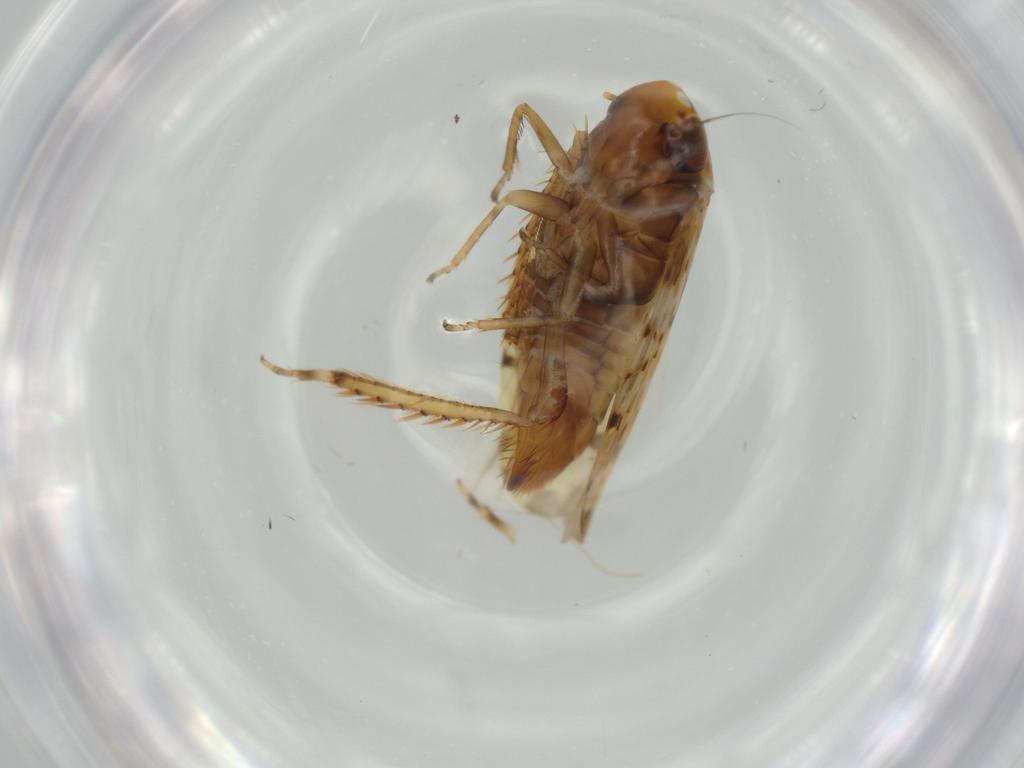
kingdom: Animalia
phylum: Arthropoda
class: Insecta
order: Hemiptera
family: Cicadellidae
